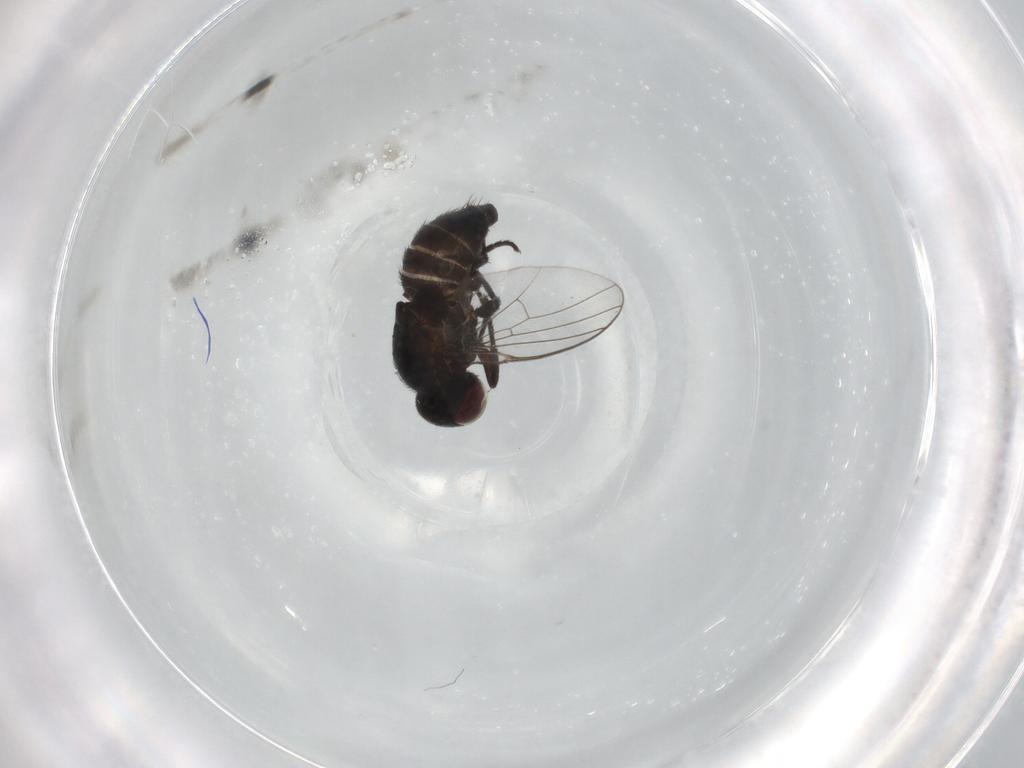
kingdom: Animalia
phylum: Arthropoda
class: Insecta
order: Diptera
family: Agromyzidae
